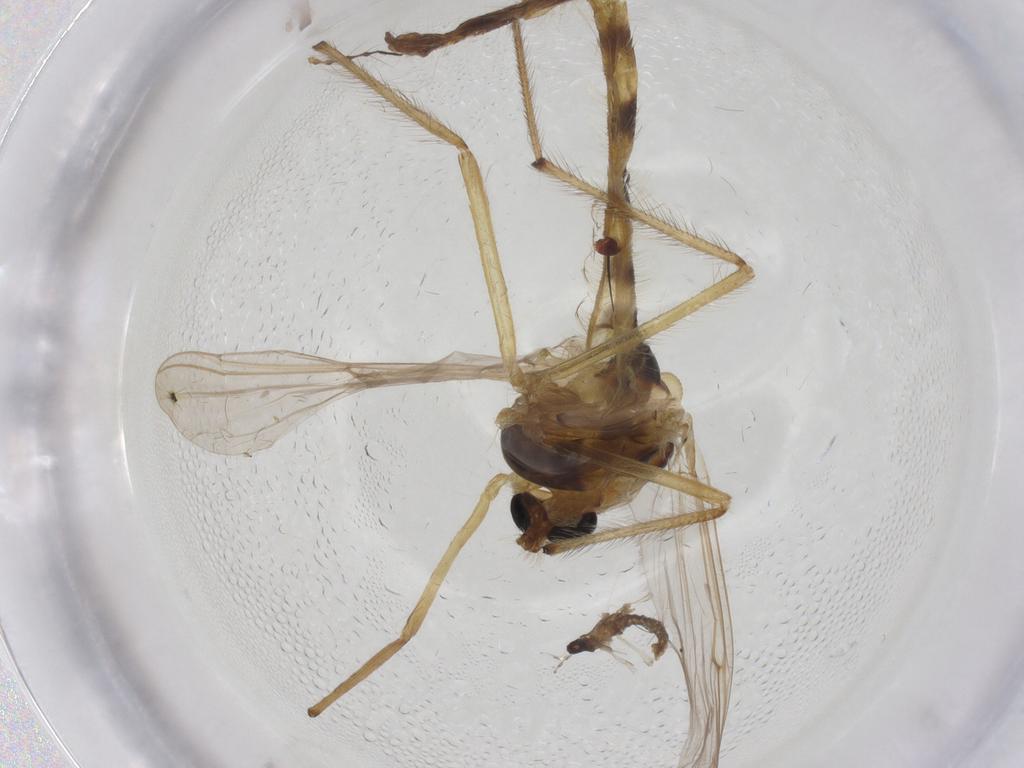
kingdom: Animalia
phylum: Arthropoda
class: Insecta
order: Diptera
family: Chironomidae
